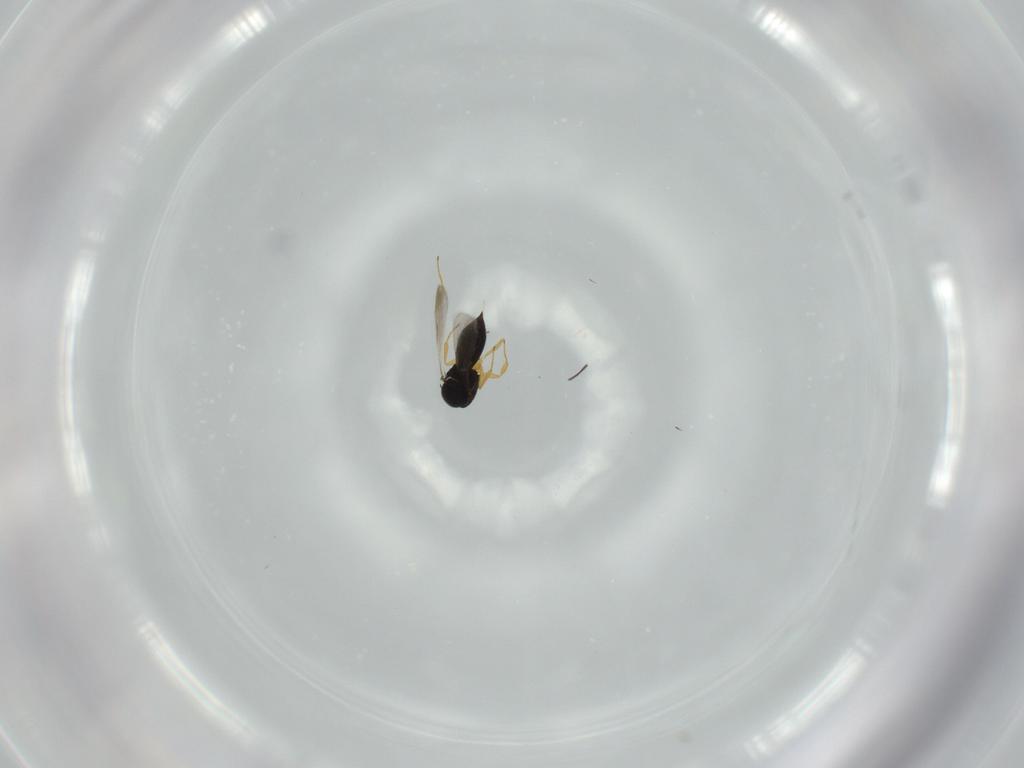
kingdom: Animalia
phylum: Arthropoda
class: Insecta
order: Hymenoptera
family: Scelionidae
